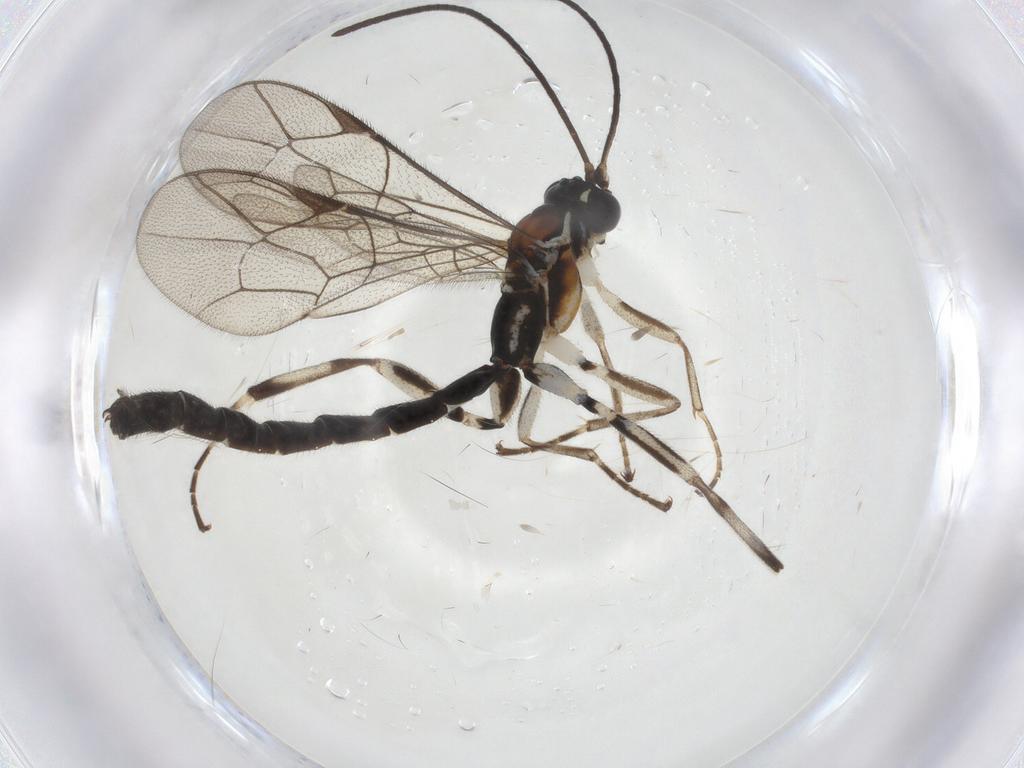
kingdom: Animalia
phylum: Arthropoda
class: Insecta
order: Hymenoptera
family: Ichneumonidae
